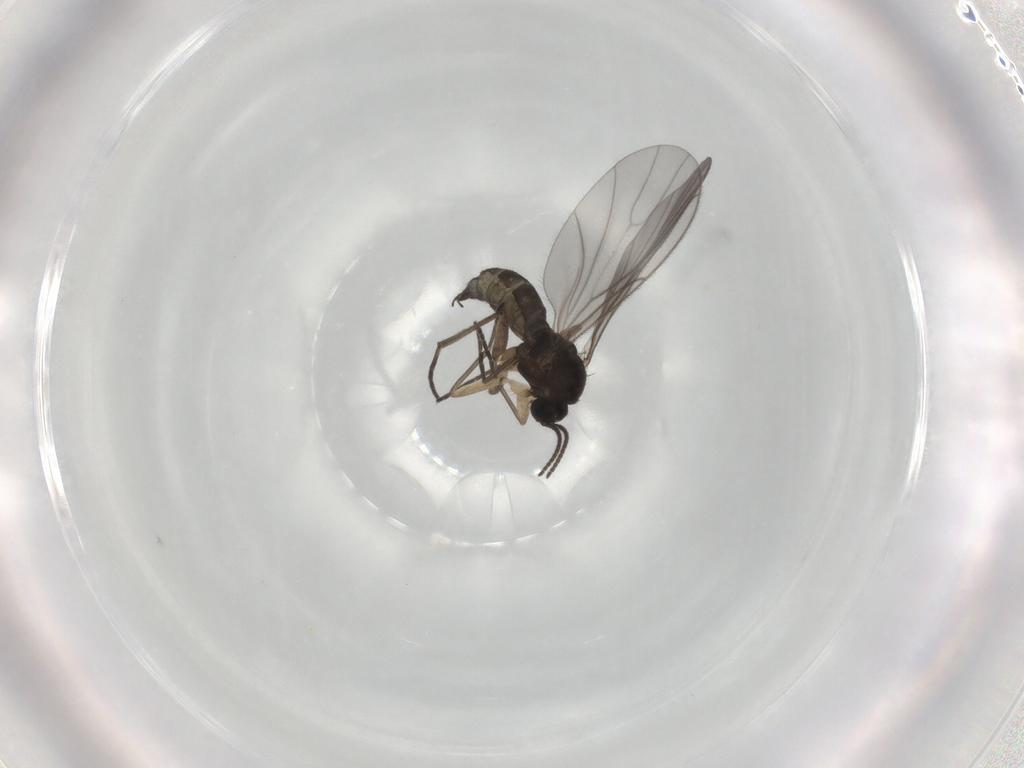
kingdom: Animalia
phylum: Arthropoda
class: Insecta
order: Diptera
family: Sciaridae
